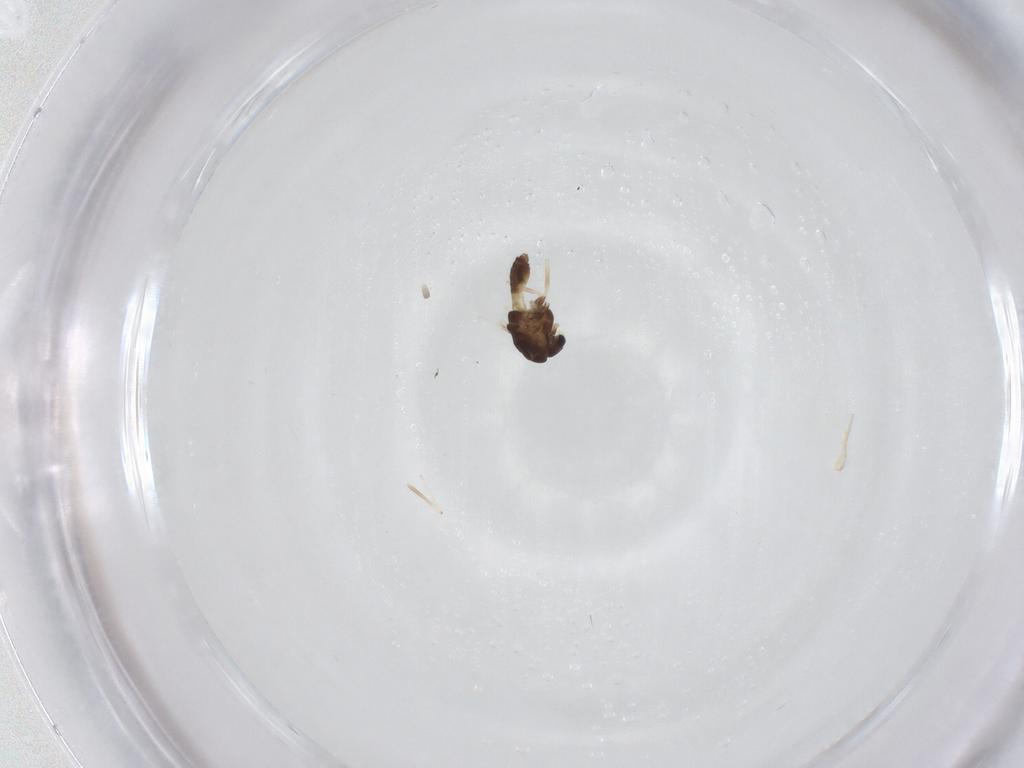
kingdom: Animalia
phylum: Arthropoda
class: Insecta
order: Diptera
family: Chironomidae
